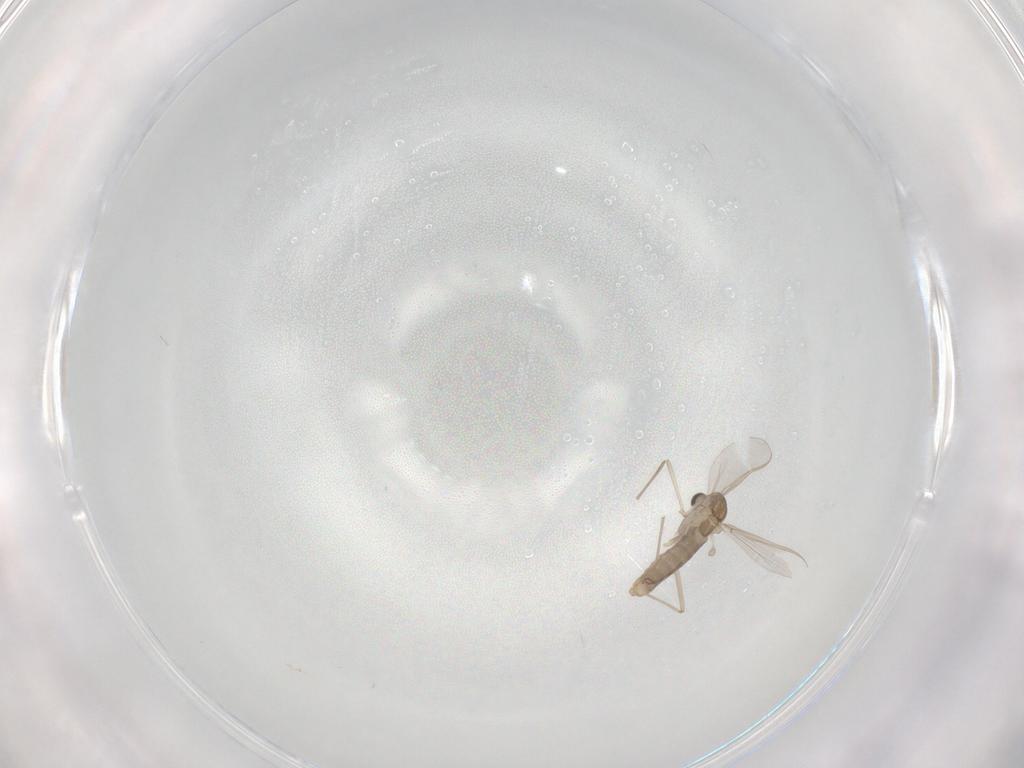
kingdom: Animalia
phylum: Arthropoda
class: Insecta
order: Diptera
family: Chironomidae
